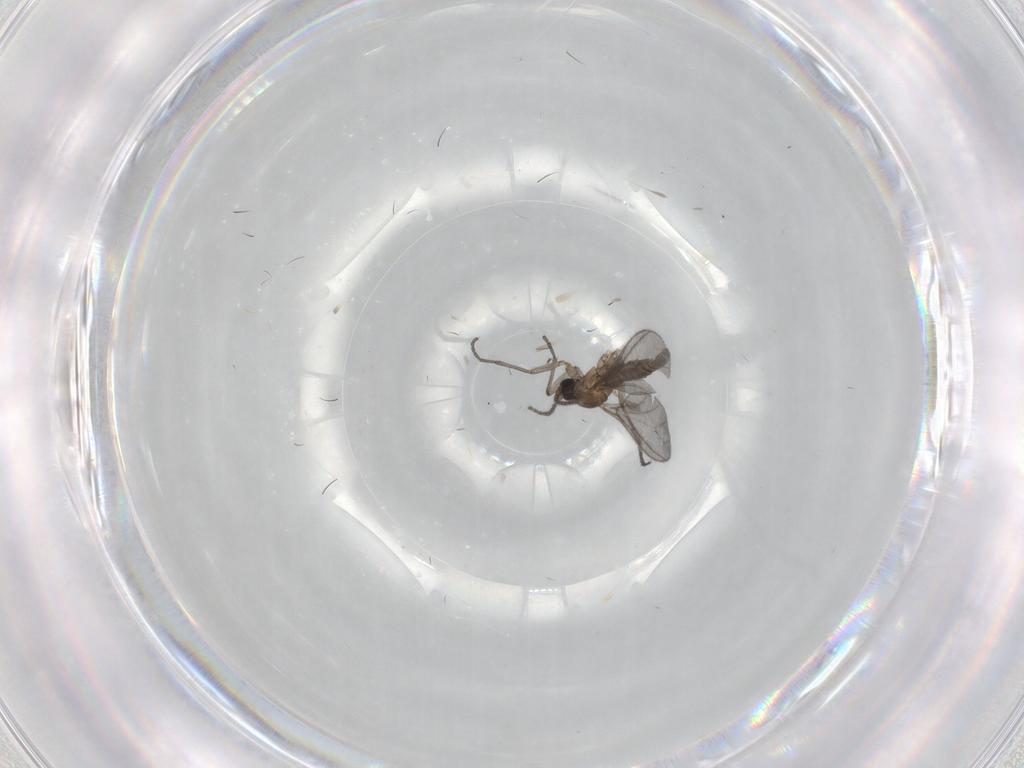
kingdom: Animalia
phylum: Arthropoda
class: Insecta
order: Diptera
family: Sciaridae
